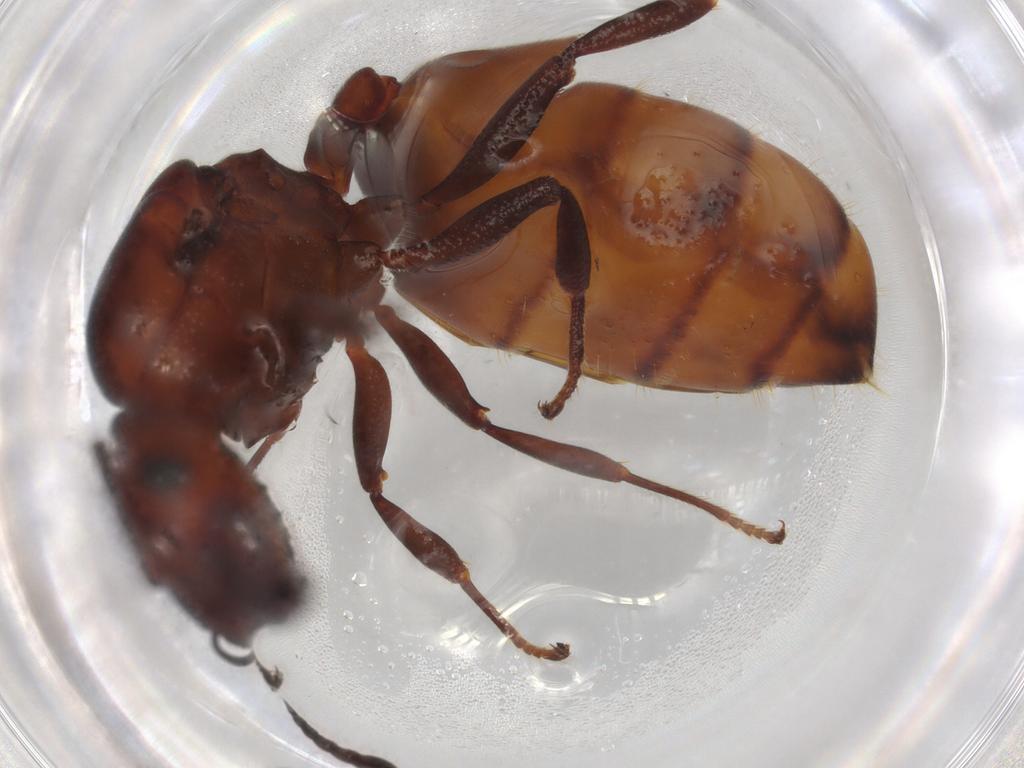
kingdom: Animalia
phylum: Arthropoda
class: Insecta
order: Hymenoptera
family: Formicidae
